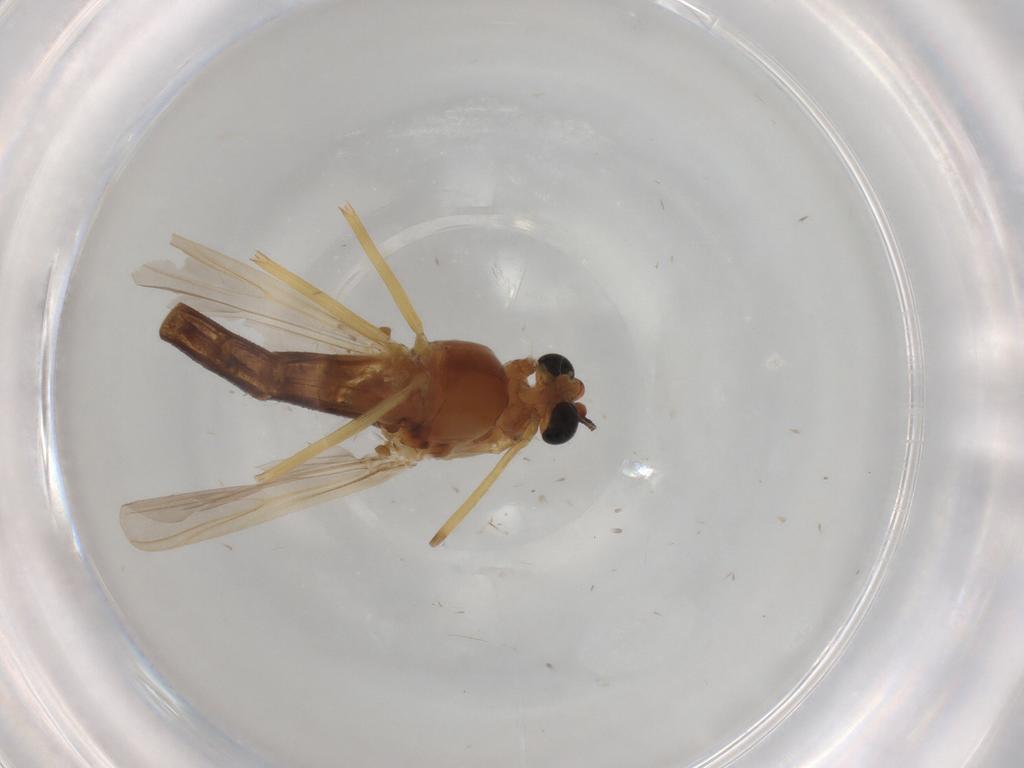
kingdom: Animalia
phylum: Arthropoda
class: Insecta
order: Diptera
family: Chironomidae
